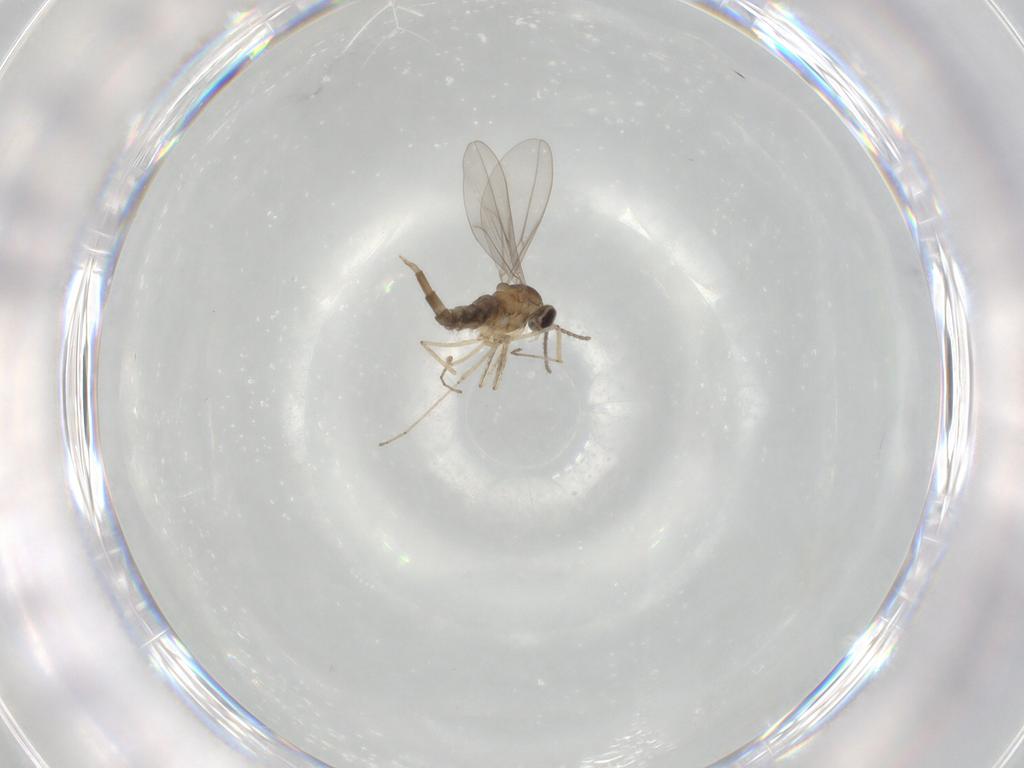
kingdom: Animalia
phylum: Arthropoda
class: Insecta
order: Diptera
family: Cecidomyiidae
